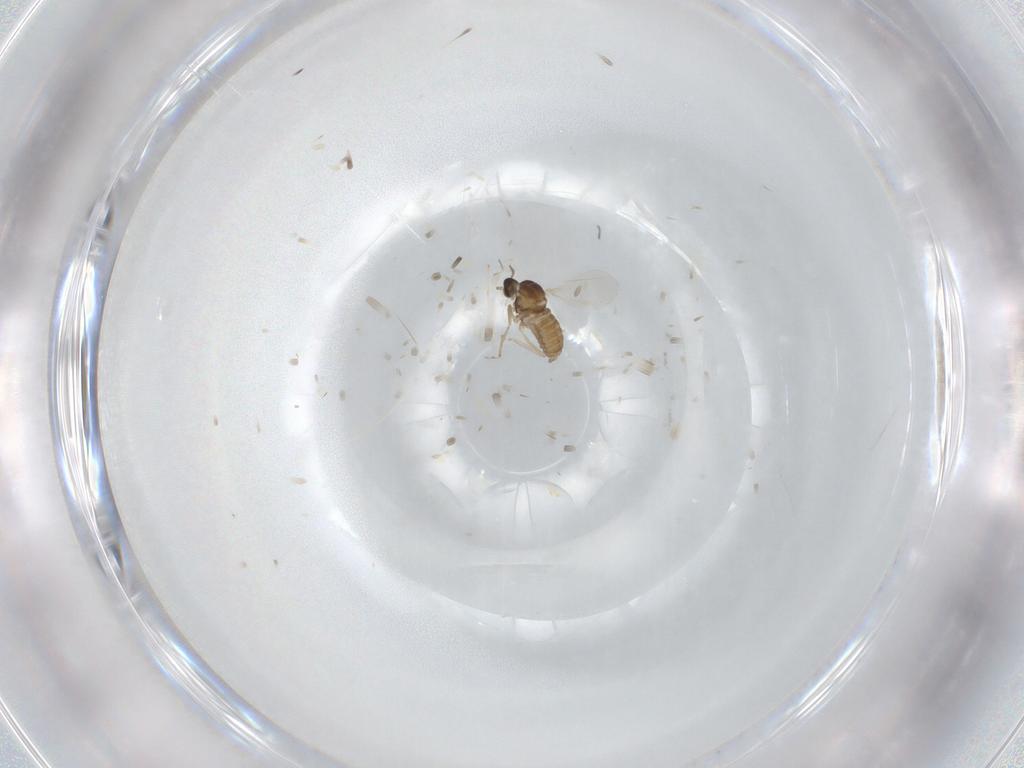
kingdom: Animalia
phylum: Arthropoda
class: Insecta
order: Diptera
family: Cecidomyiidae
